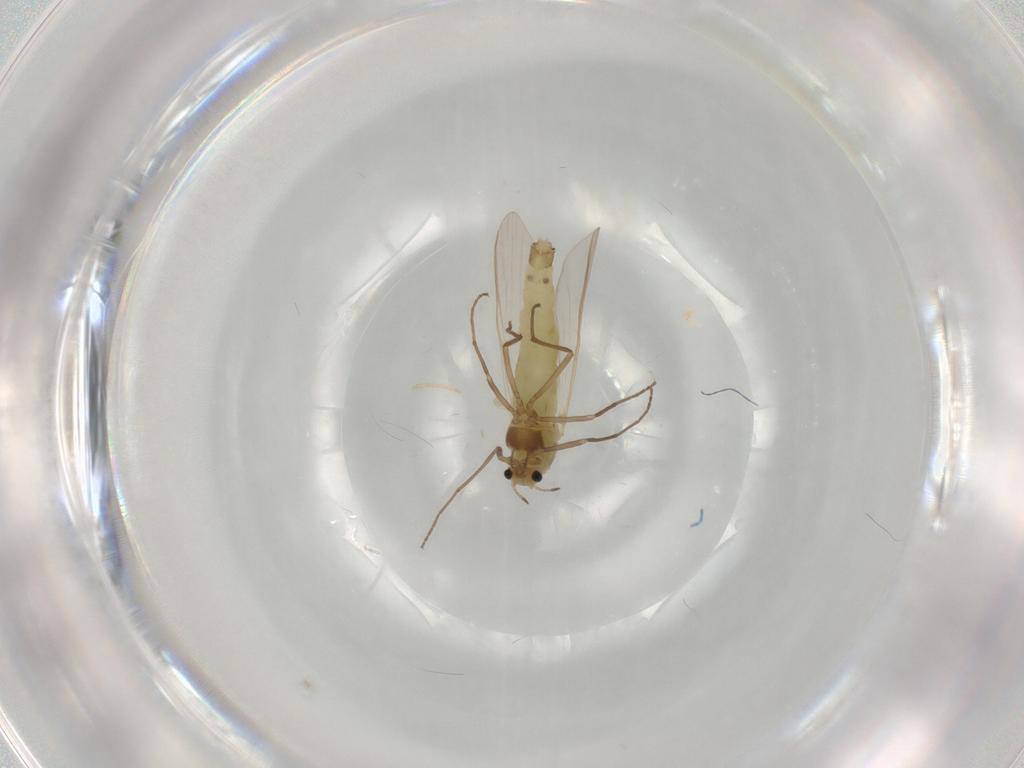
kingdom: Animalia
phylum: Arthropoda
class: Insecta
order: Diptera
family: Chironomidae
